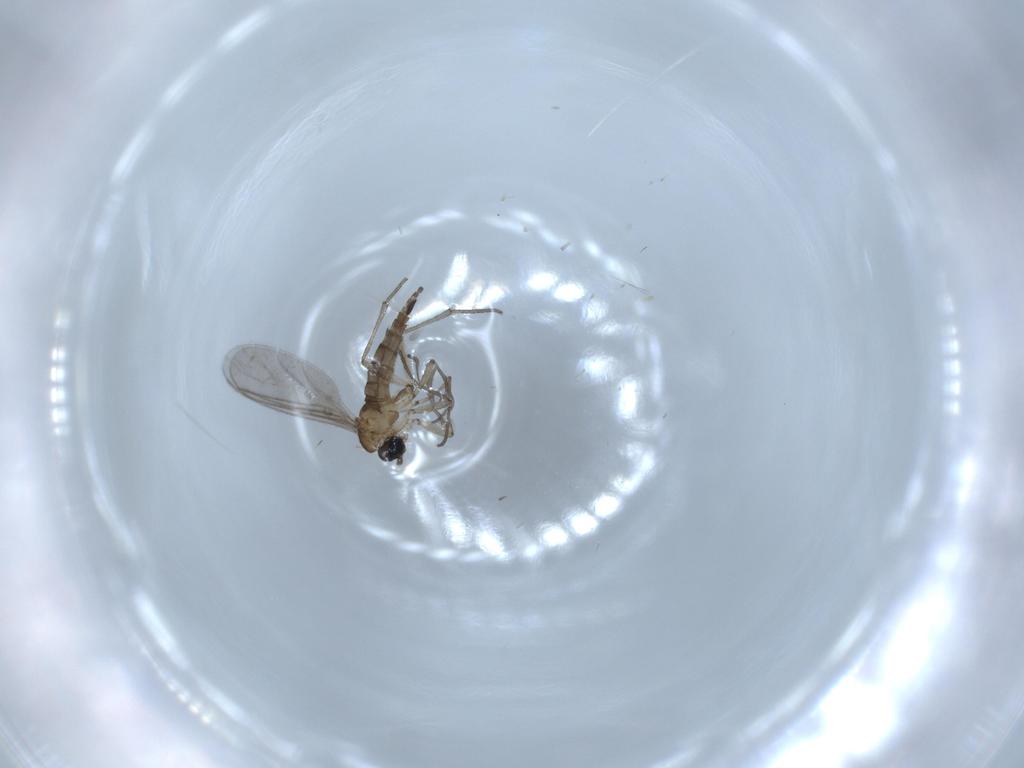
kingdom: Animalia
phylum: Arthropoda
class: Insecta
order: Diptera
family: Sciaridae
